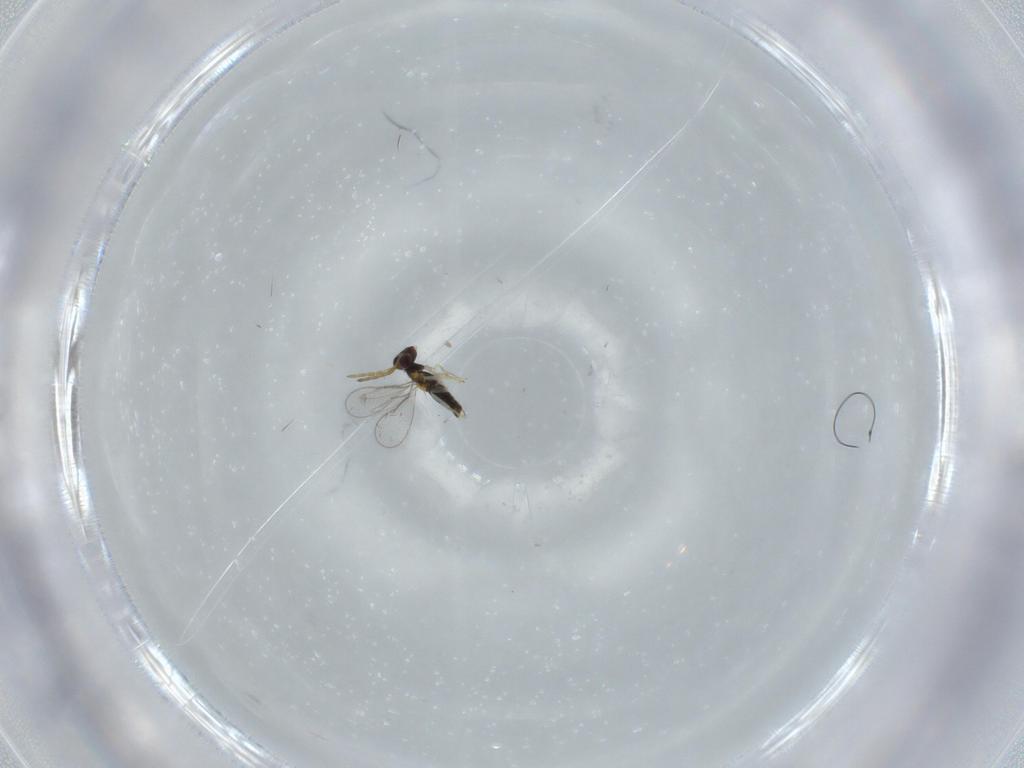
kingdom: Animalia
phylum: Arthropoda
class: Insecta
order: Hymenoptera
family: Aphelinidae
